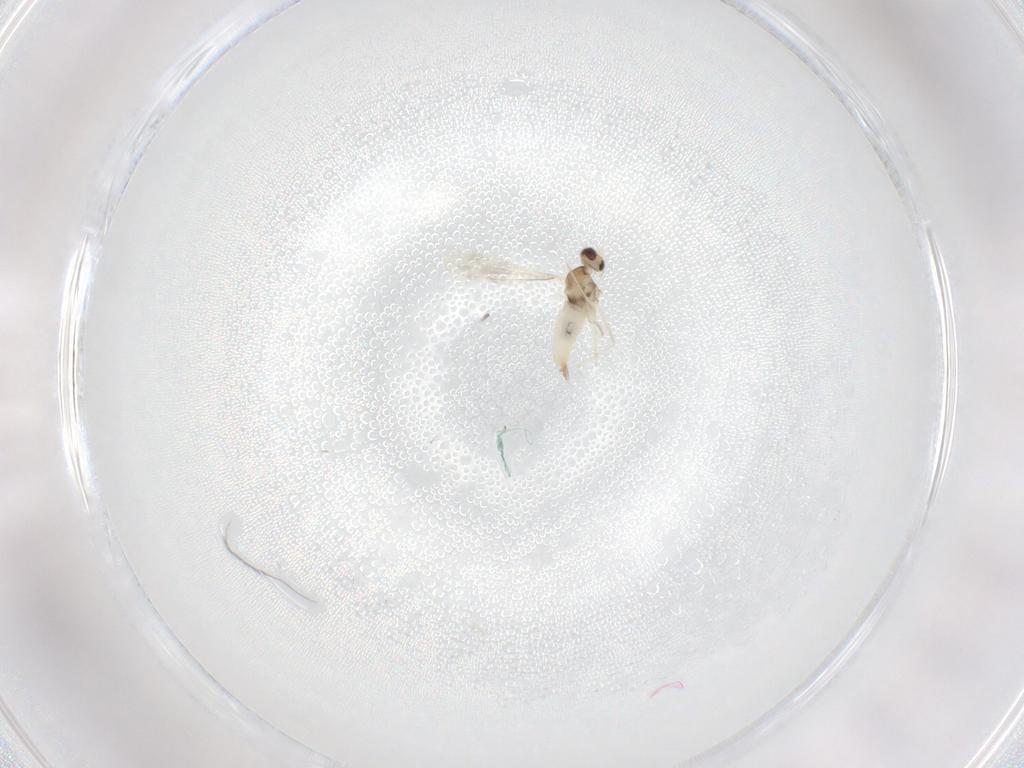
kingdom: Animalia
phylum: Arthropoda
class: Insecta
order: Diptera
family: Cecidomyiidae
